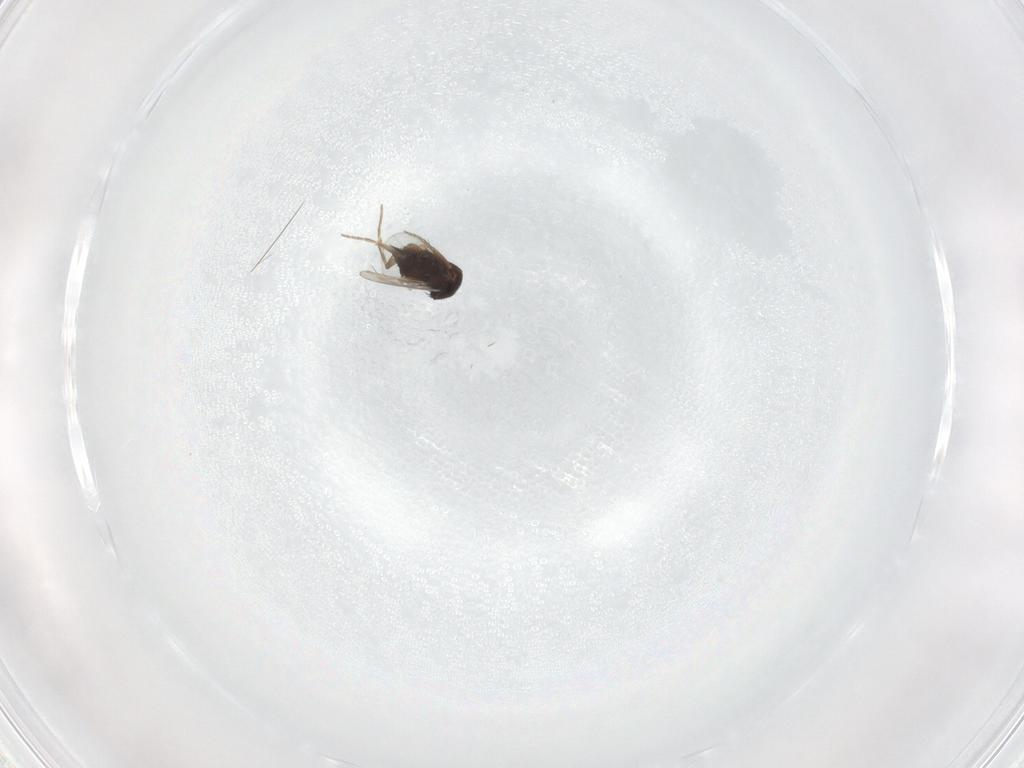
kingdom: Animalia
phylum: Arthropoda
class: Insecta
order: Diptera
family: Phoridae
